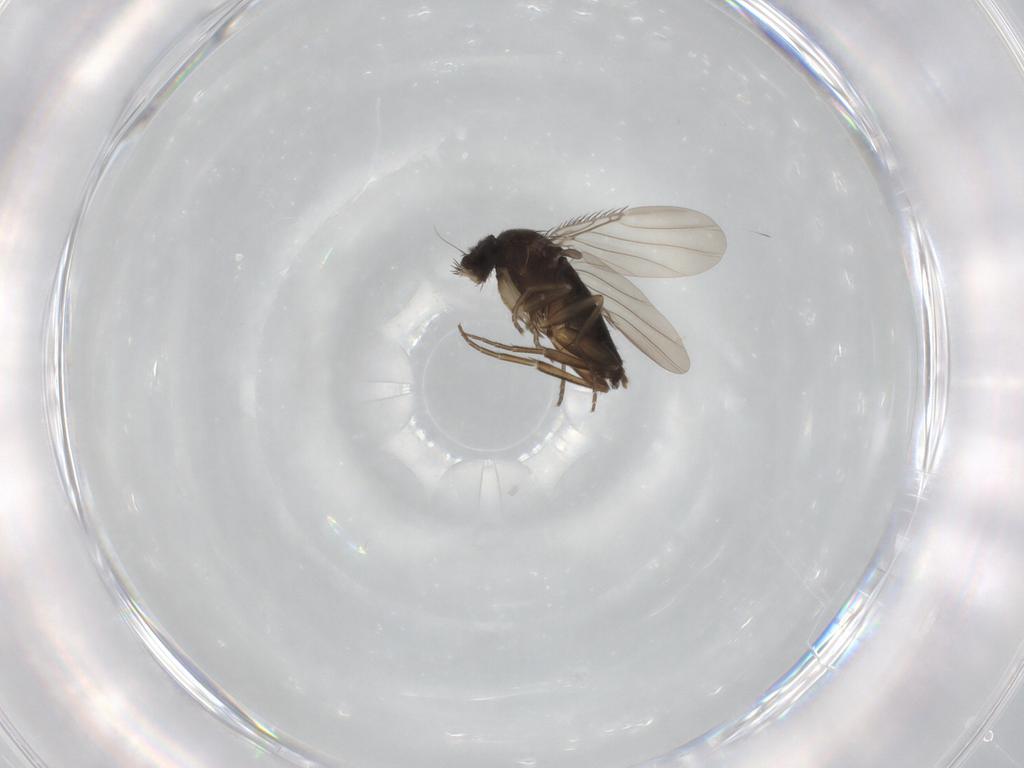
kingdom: Animalia
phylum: Arthropoda
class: Insecta
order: Diptera
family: Phoridae
